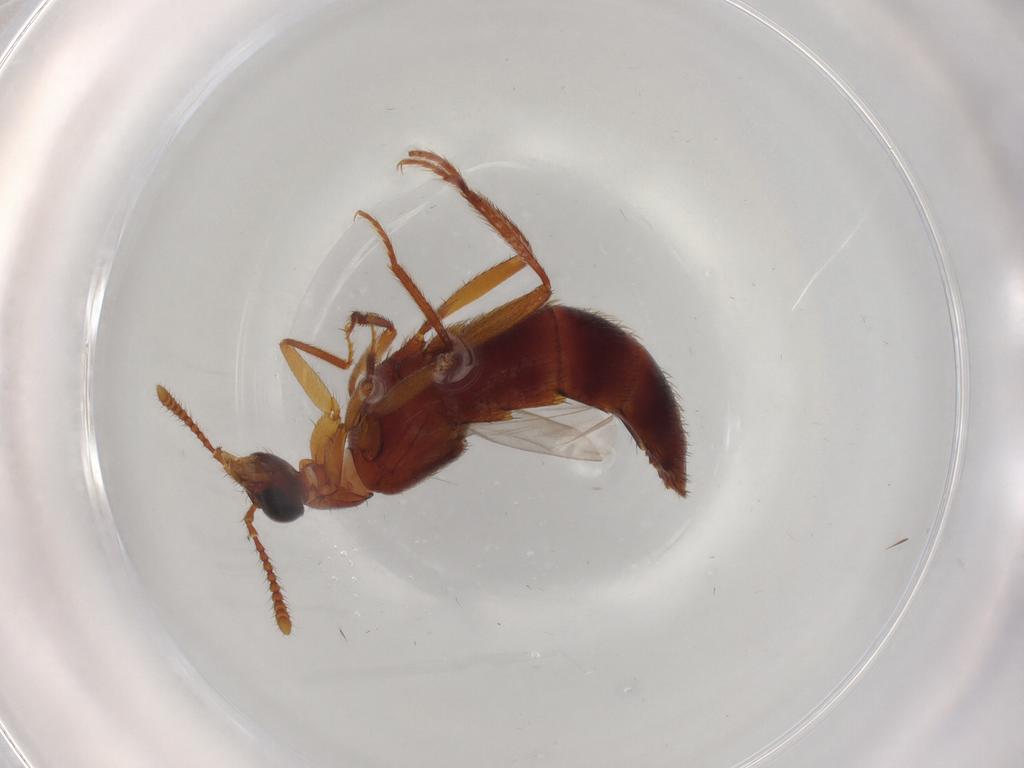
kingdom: Animalia
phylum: Arthropoda
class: Insecta
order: Coleoptera
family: Staphylinidae
